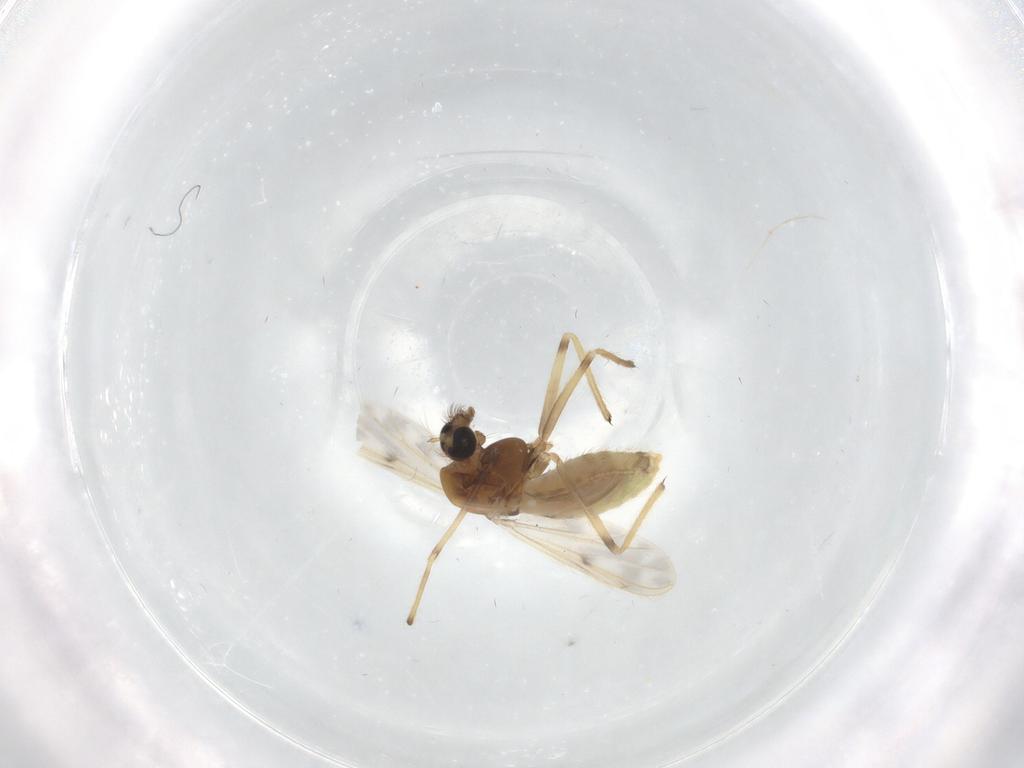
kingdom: Animalia
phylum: Arthropoda
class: Insecta
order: Diptera
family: Chironomidae
